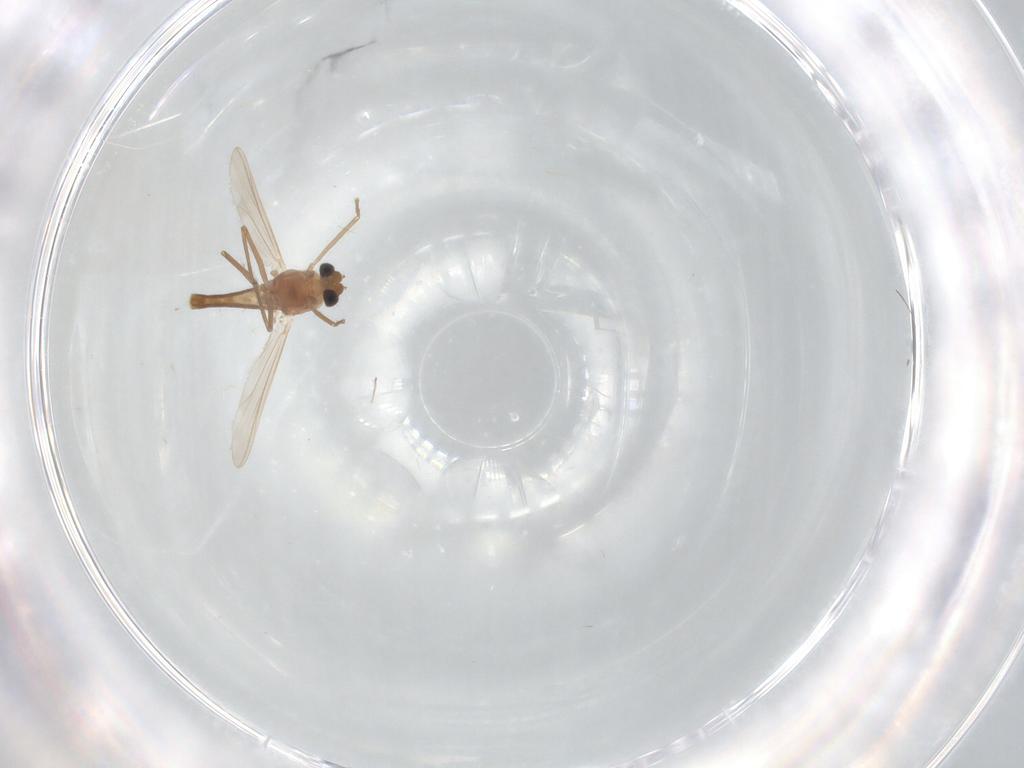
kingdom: Animalia
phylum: Arthropoda
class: Insecta
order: Diptera
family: Chironomidae
